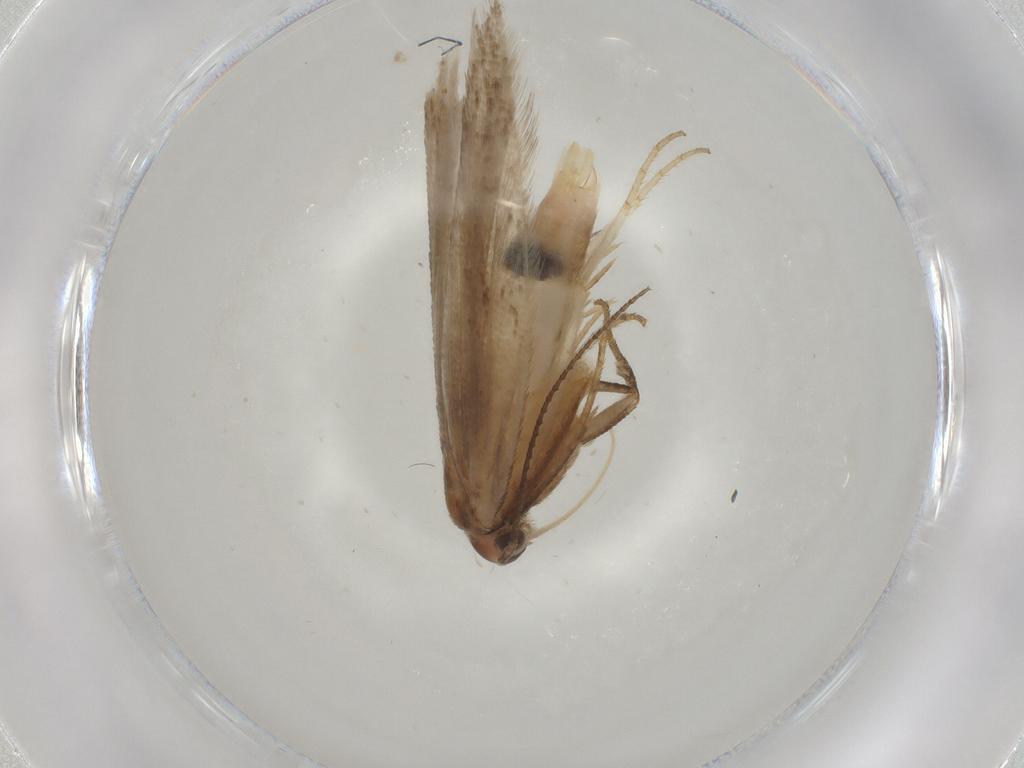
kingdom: Animalia
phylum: Arthropoda
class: Insecta
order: Lepidoptera
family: Gelechiidae
